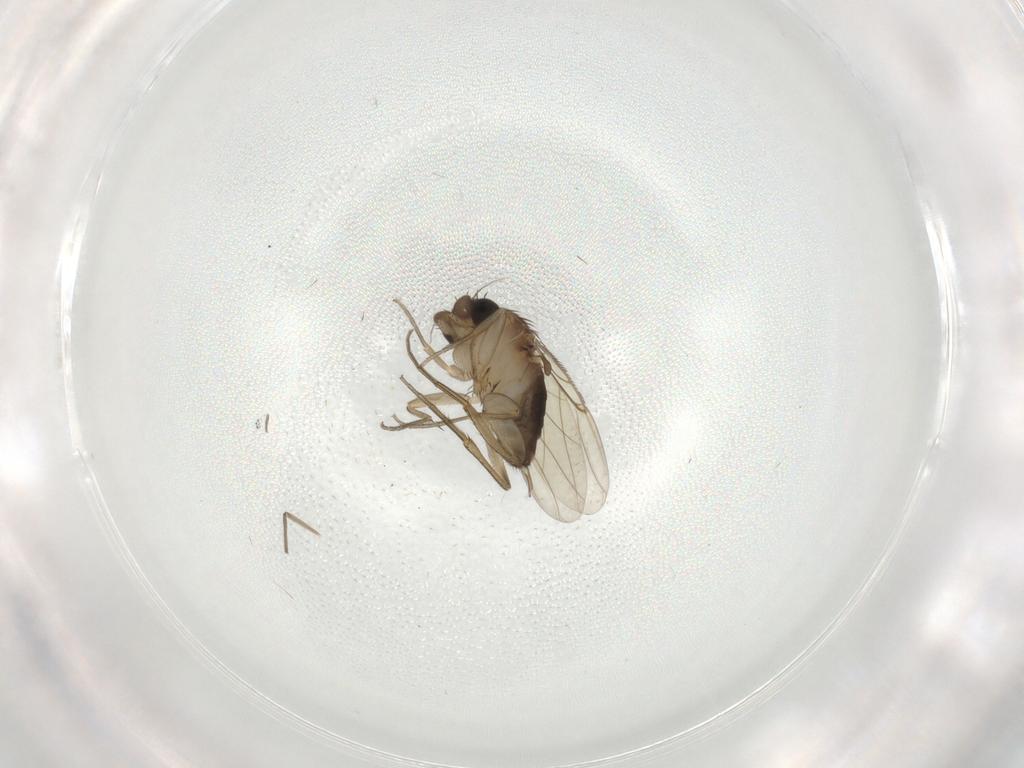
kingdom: Animalia
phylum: Arthropoda
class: Insecta
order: Diptera
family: Phoridae
